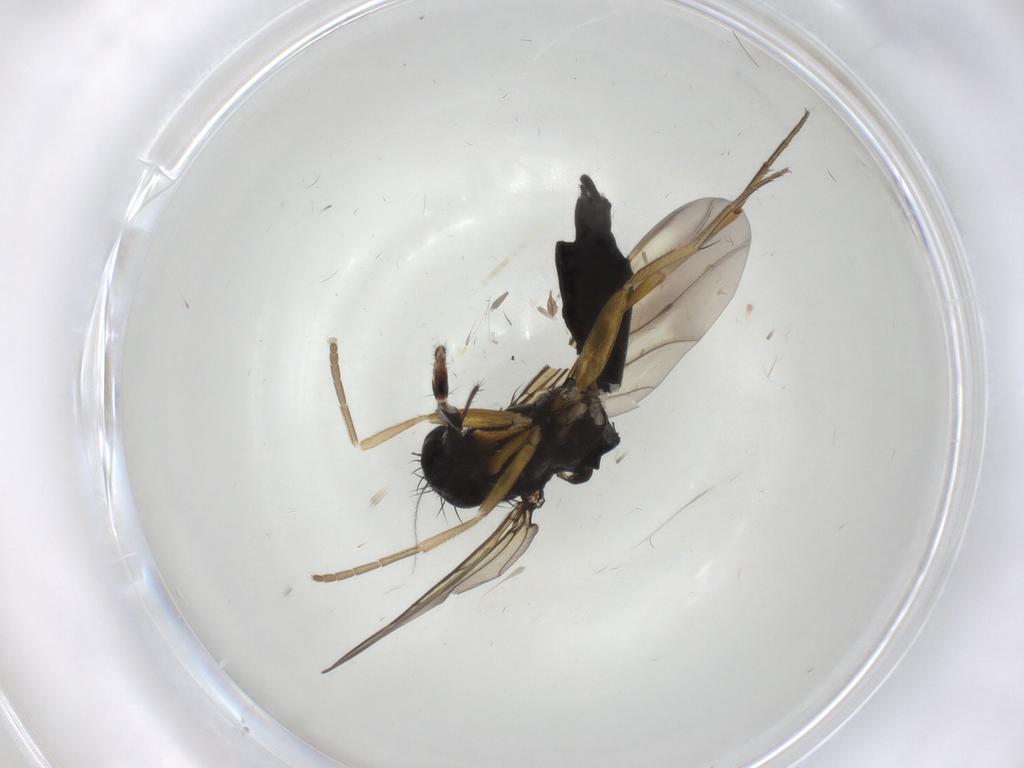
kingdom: Animalia
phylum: Arthropoda
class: Insecta
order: Diptera
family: Sciaridae
